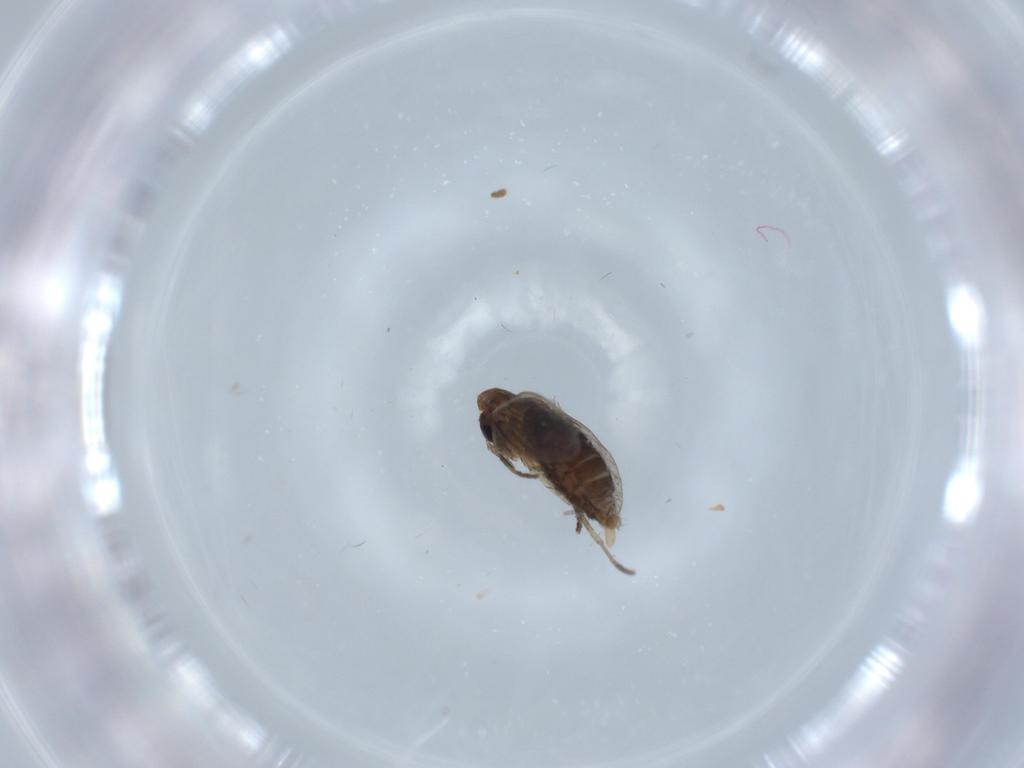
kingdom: Animalia
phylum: Arthropoda
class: Insecta
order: Diptera
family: Psychodidae
